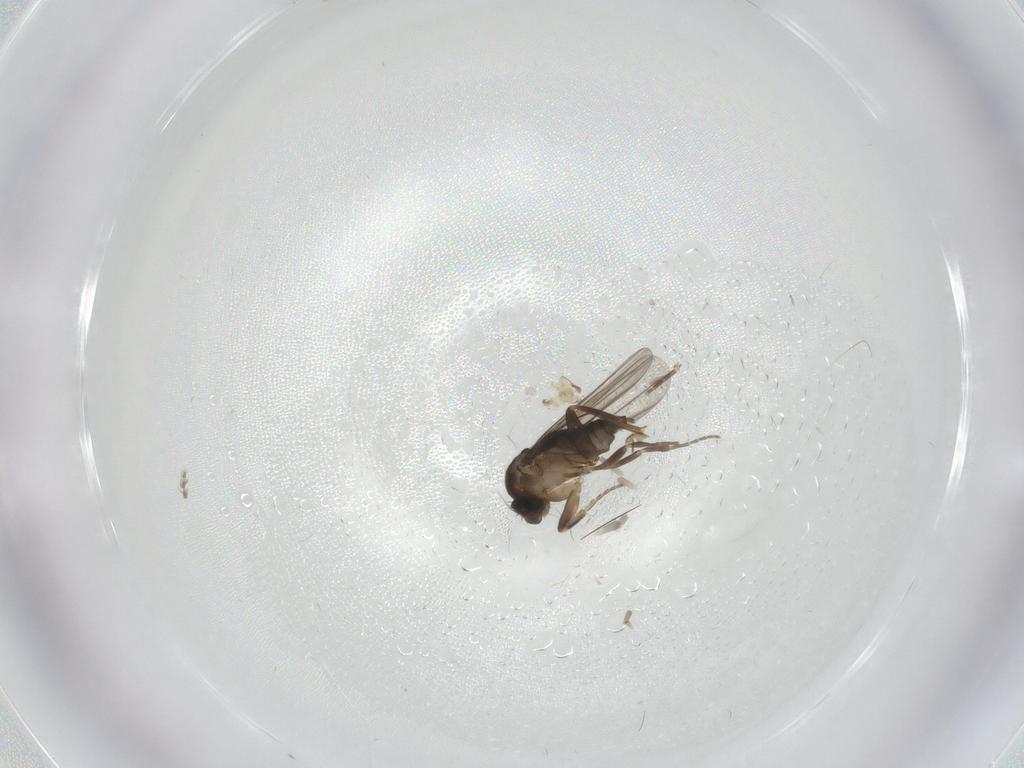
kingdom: Animalia
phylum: Arthropoda
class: Insecta
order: Diptera
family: Phoridae
